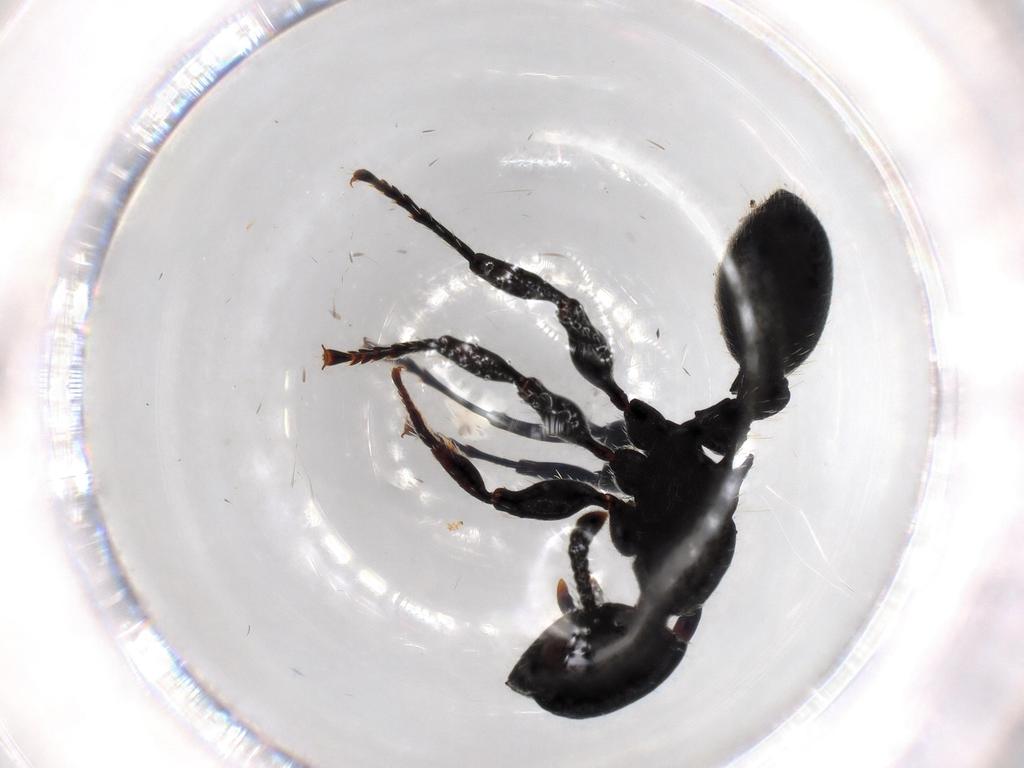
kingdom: Animalia
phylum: Arthropoda
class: Insecta
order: Hymenoptera
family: Formicidae
